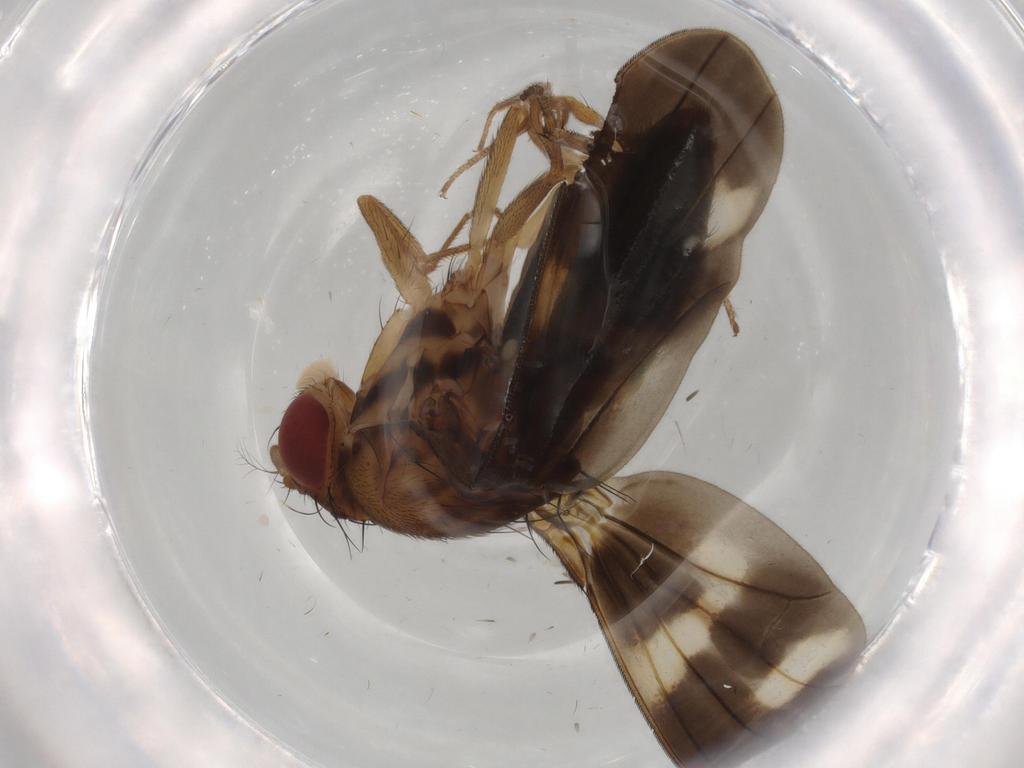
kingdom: Animalia
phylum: Arthropoda
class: Insecta
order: Diptera
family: Drosophilidae
